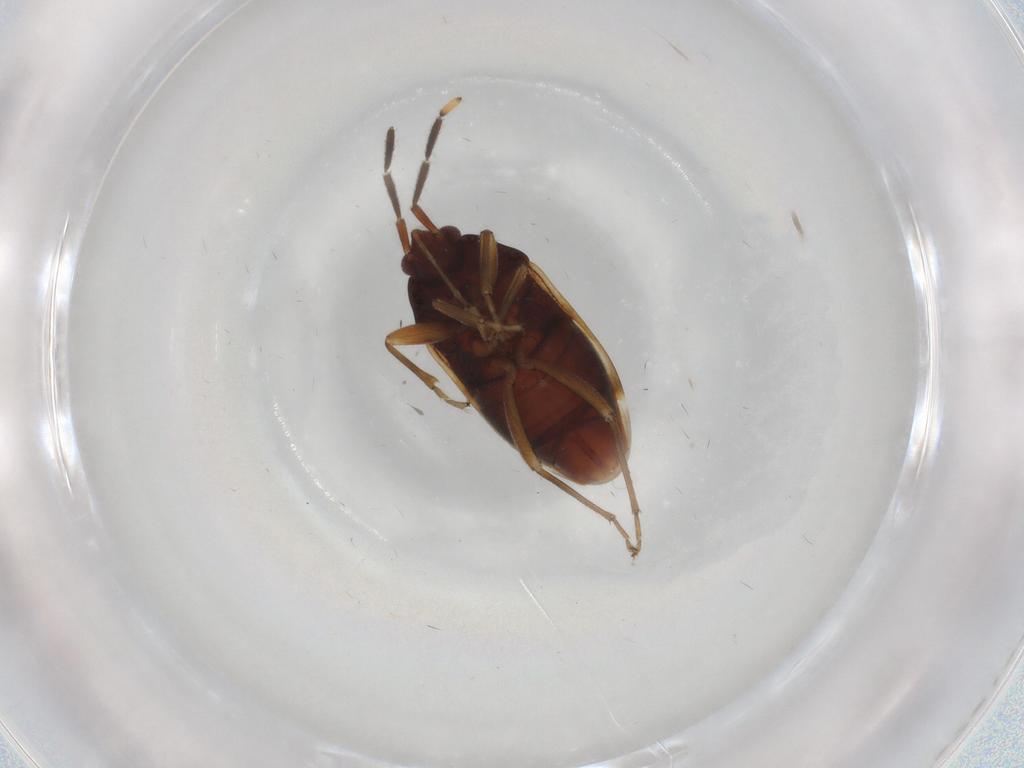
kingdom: Animalia
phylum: Arthropoda
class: Insecta
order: Hemiptera
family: Rhyparochromidae
